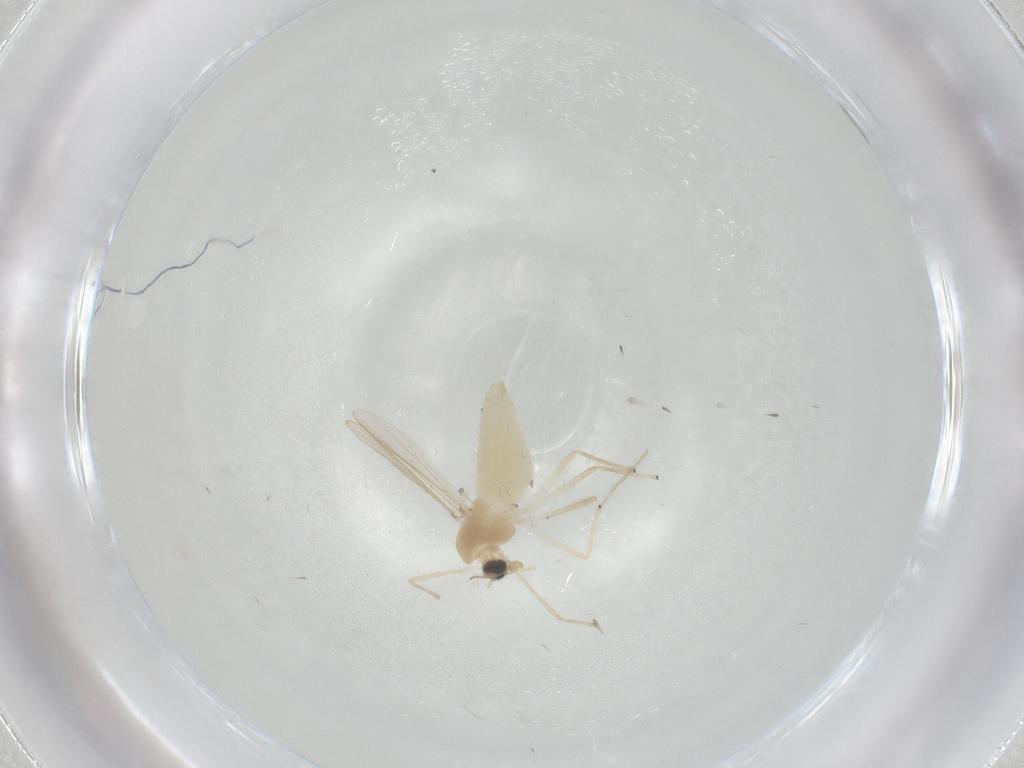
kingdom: Animalia
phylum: Arthropoda
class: Insecta
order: Diptera
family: Chironomidae
